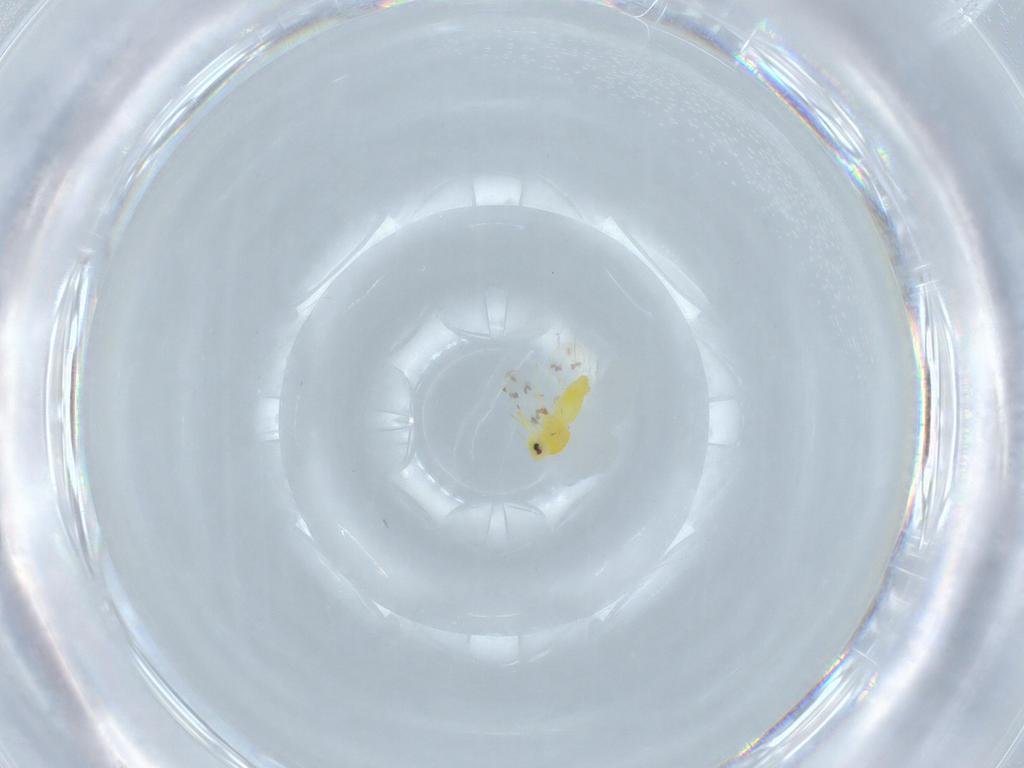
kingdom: Animalia
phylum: Arthropoda
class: Insecta
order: Hemiptera
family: Aleyrodidae
